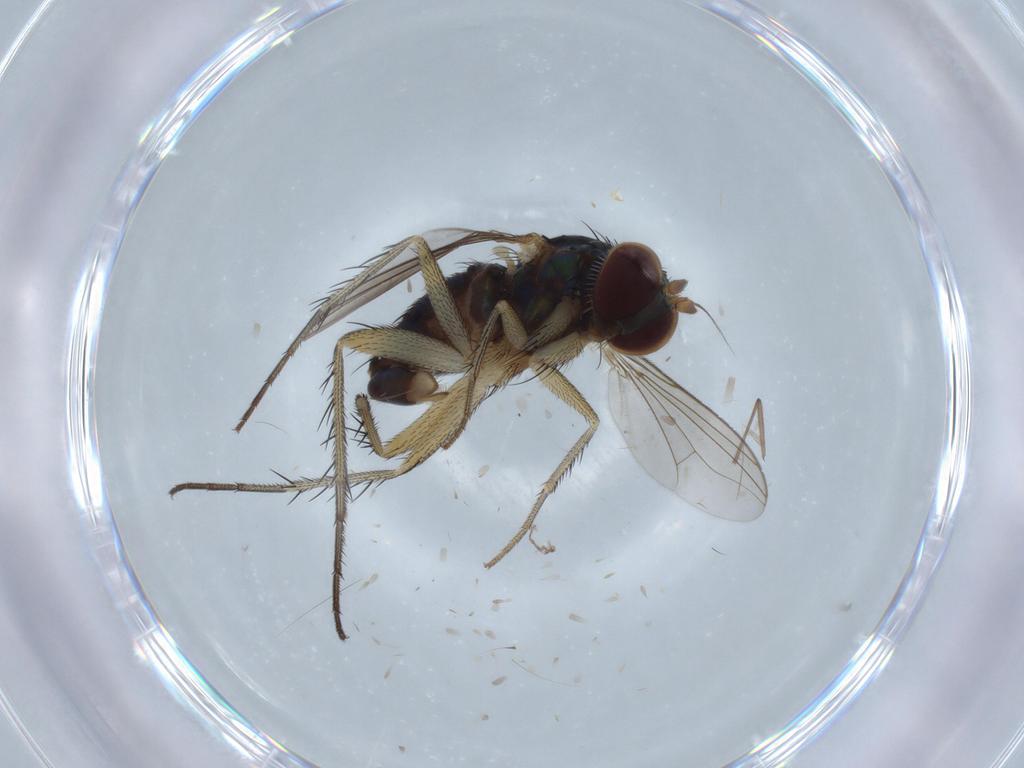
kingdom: Animalia
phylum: Arthropoda
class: Insecta
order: Diptera
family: Dolichopodidae
